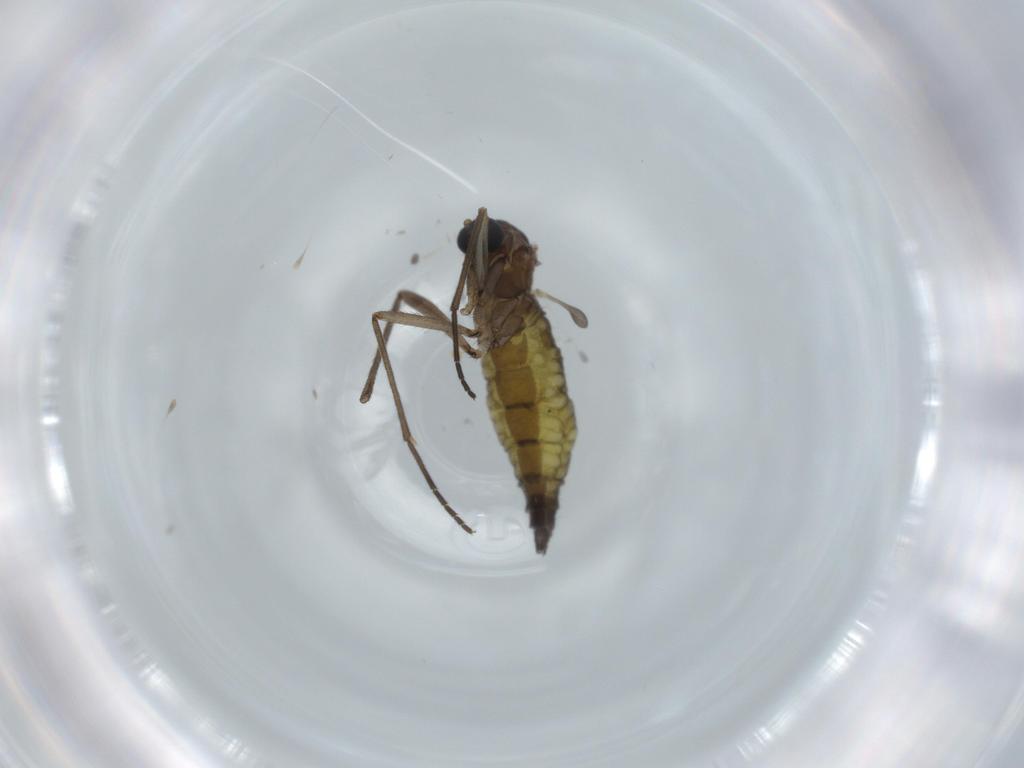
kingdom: Animalia
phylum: Arthropoda
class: Insecta
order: Diptera
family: Sciaridae
